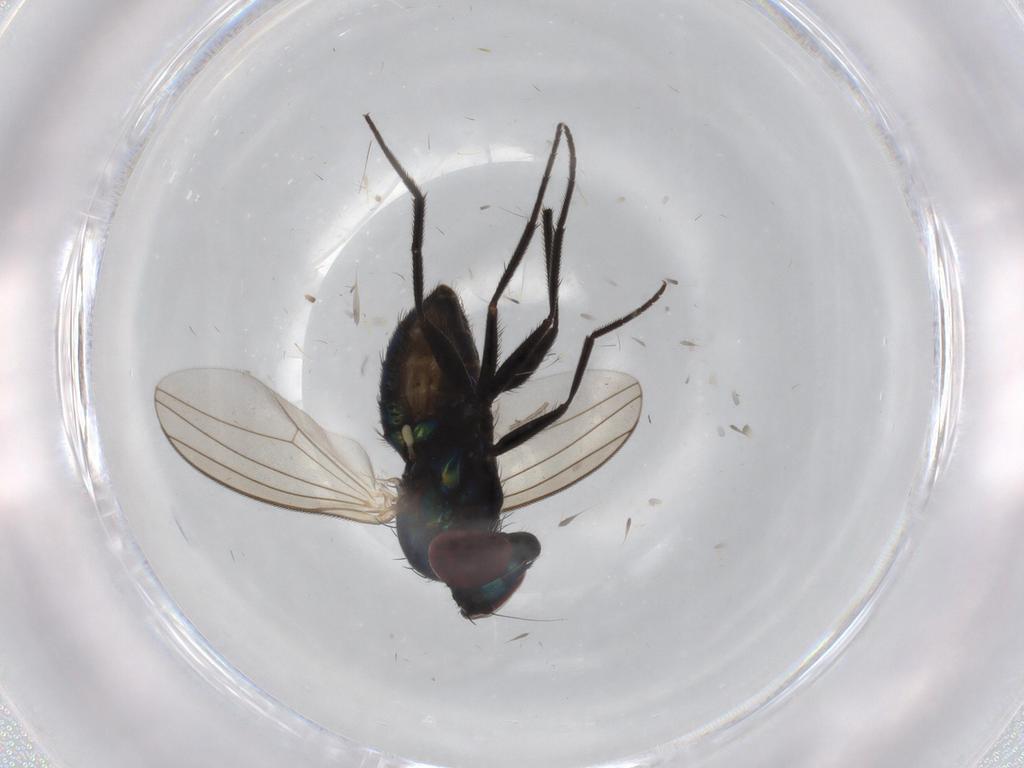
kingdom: Animalia
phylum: Arthropoda
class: Insecta
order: Diptera
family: Dolichopodidae
